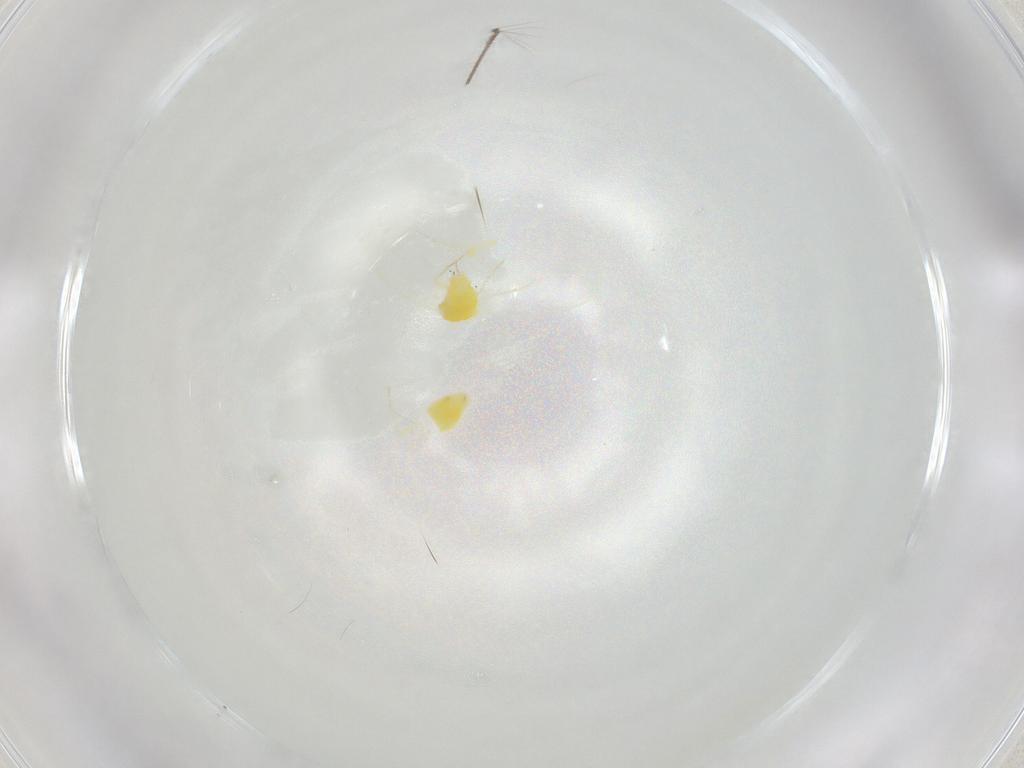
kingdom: Animalia
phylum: Arthropoda
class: Insecta
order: Hemiptera
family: Aleyrodidae
